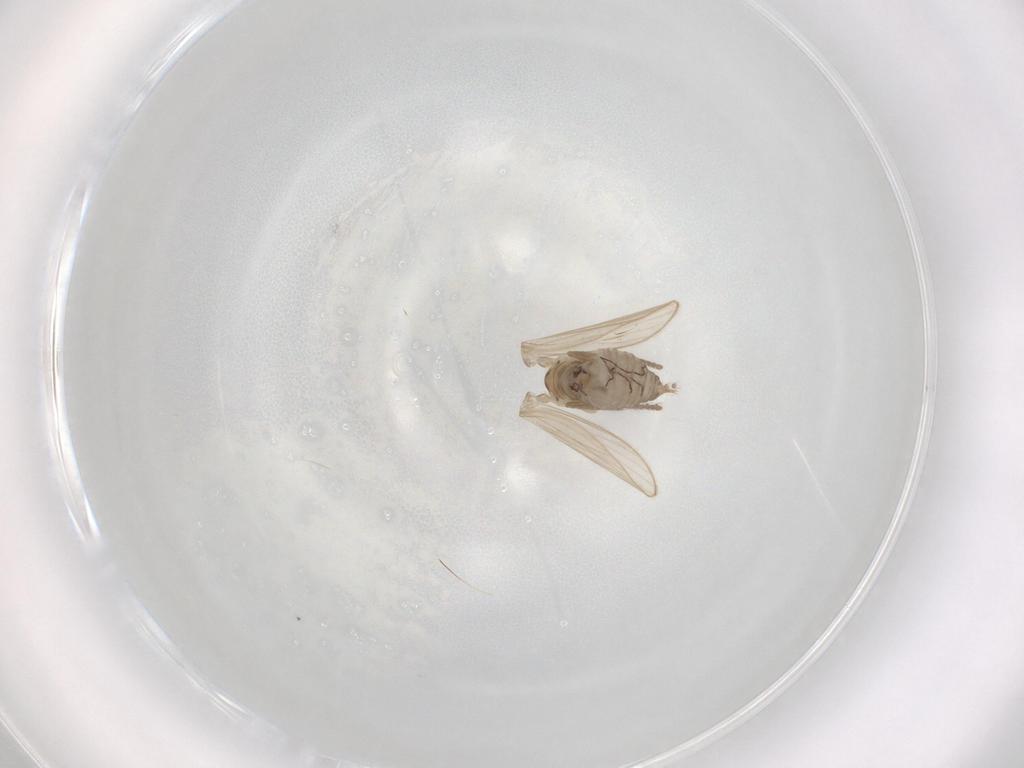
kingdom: Animalia
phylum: Arthropoda
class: Insecta
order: Diptera
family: Psychodidae
